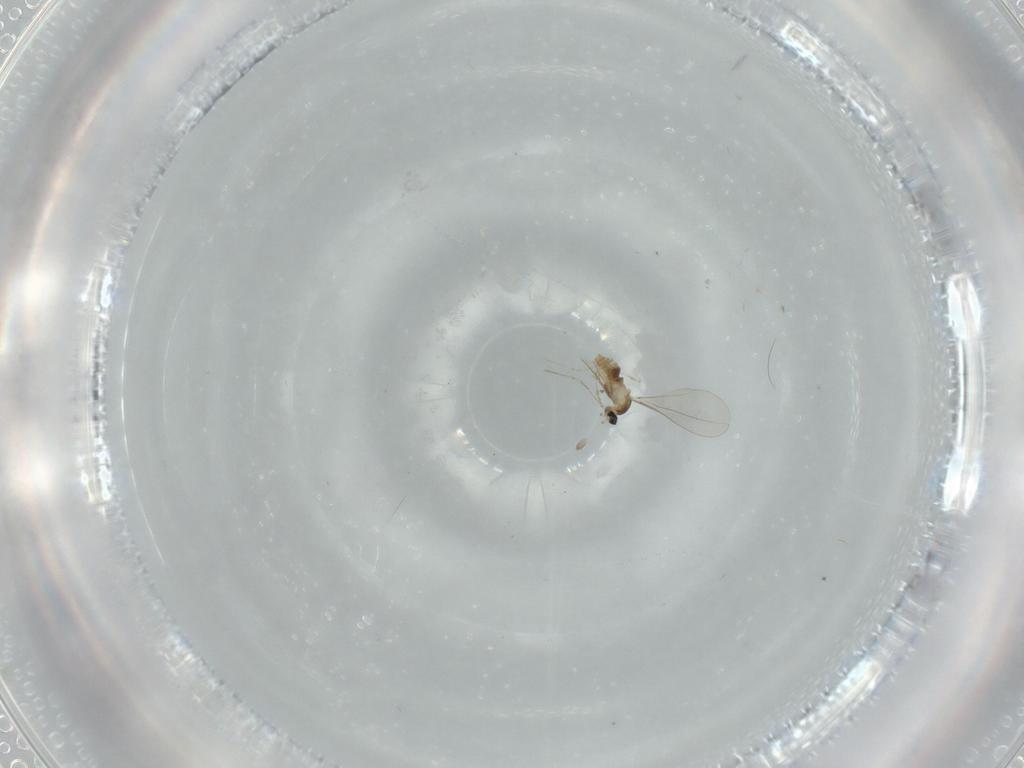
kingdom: Animalia
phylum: Arthropoda
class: Insecta
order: Diptera
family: Cecidomyiidae
